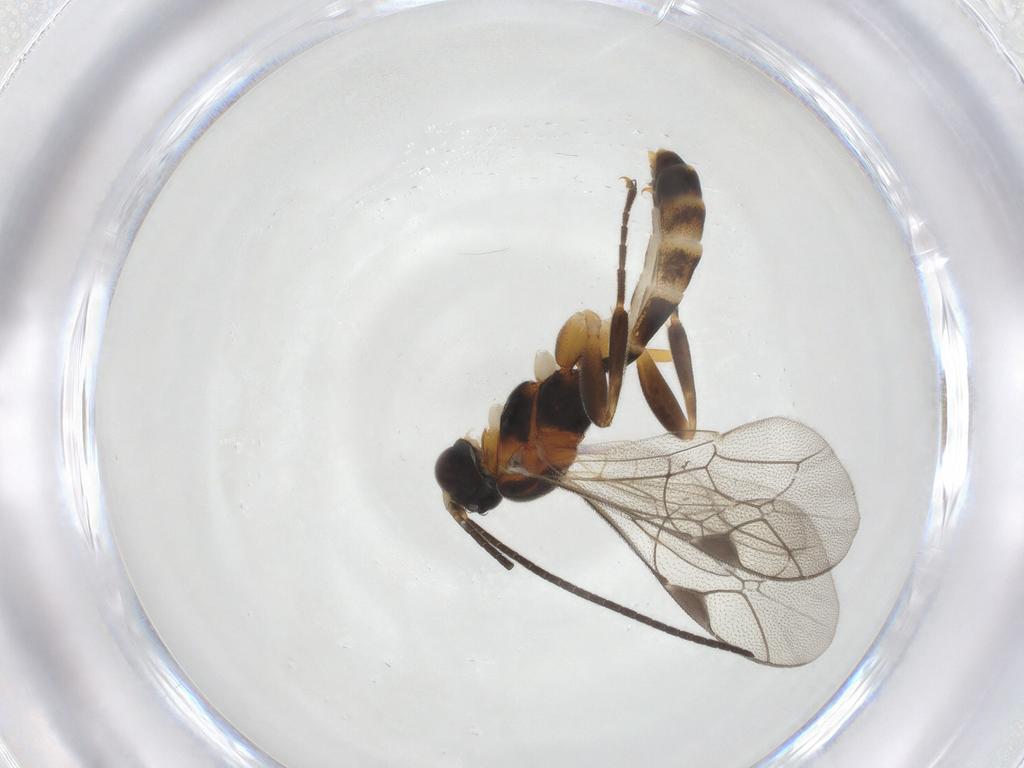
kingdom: Animalia
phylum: Arthropoda
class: Insecta
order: Hymenoptera
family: Ichneumonidae
